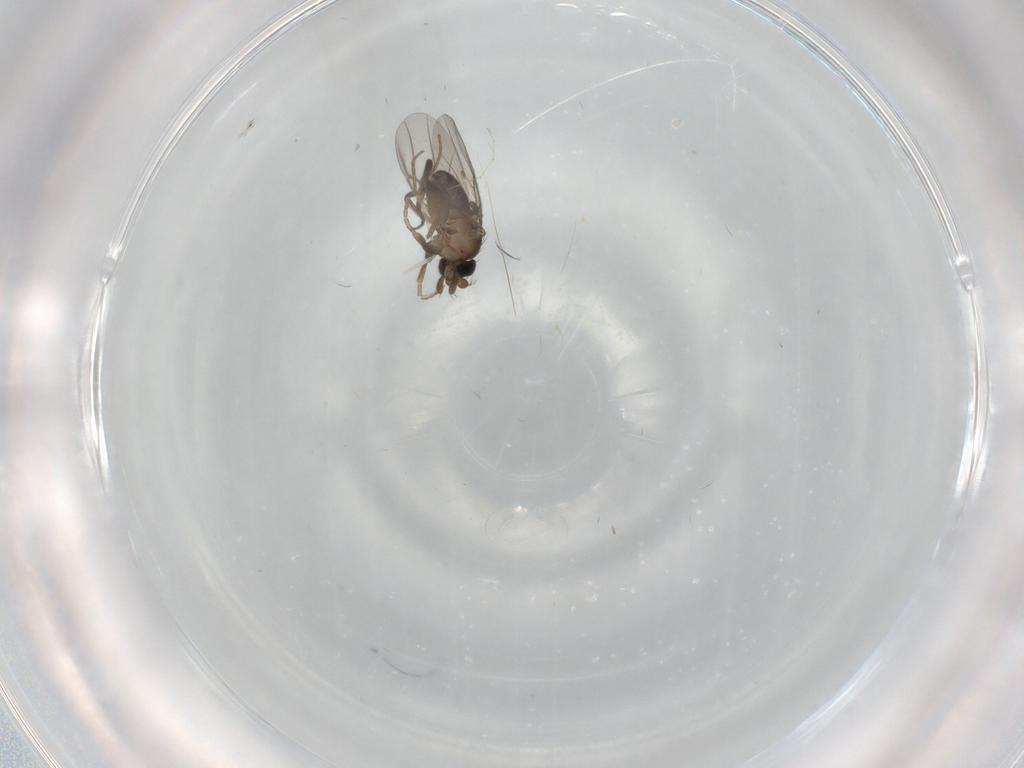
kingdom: Animalia
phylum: Arthropoda
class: Insecta
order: Diptera
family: Phoridae
